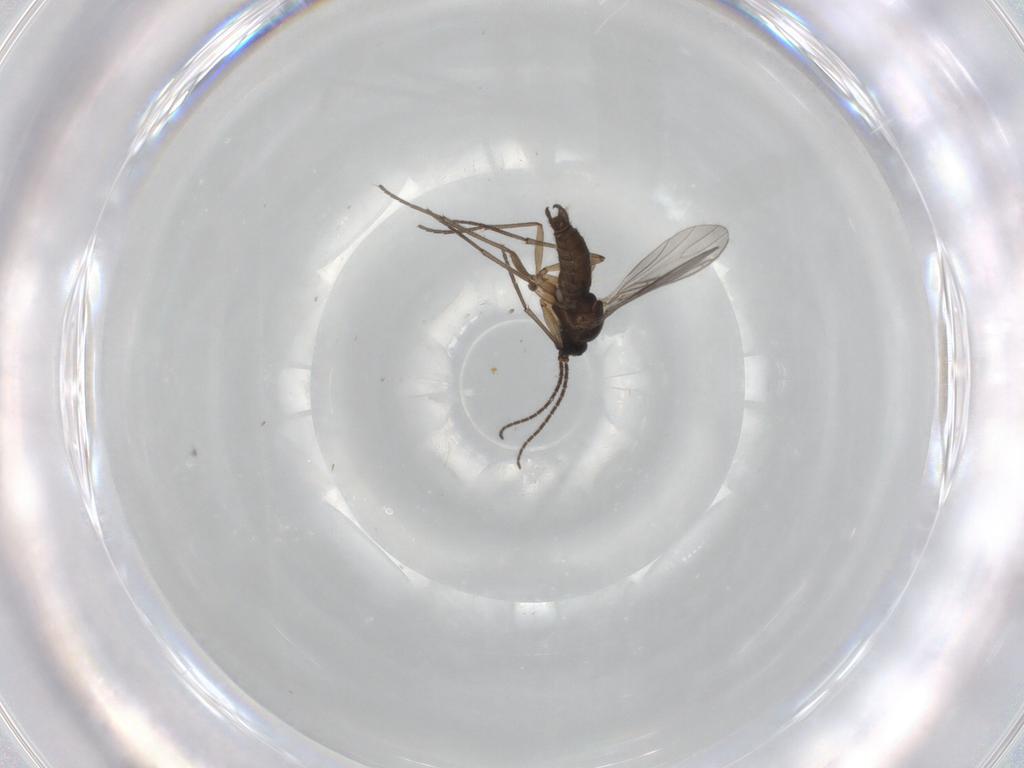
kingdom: Animalia
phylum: Arthropoda
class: Insecta
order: Diptera
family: Sciaridae
